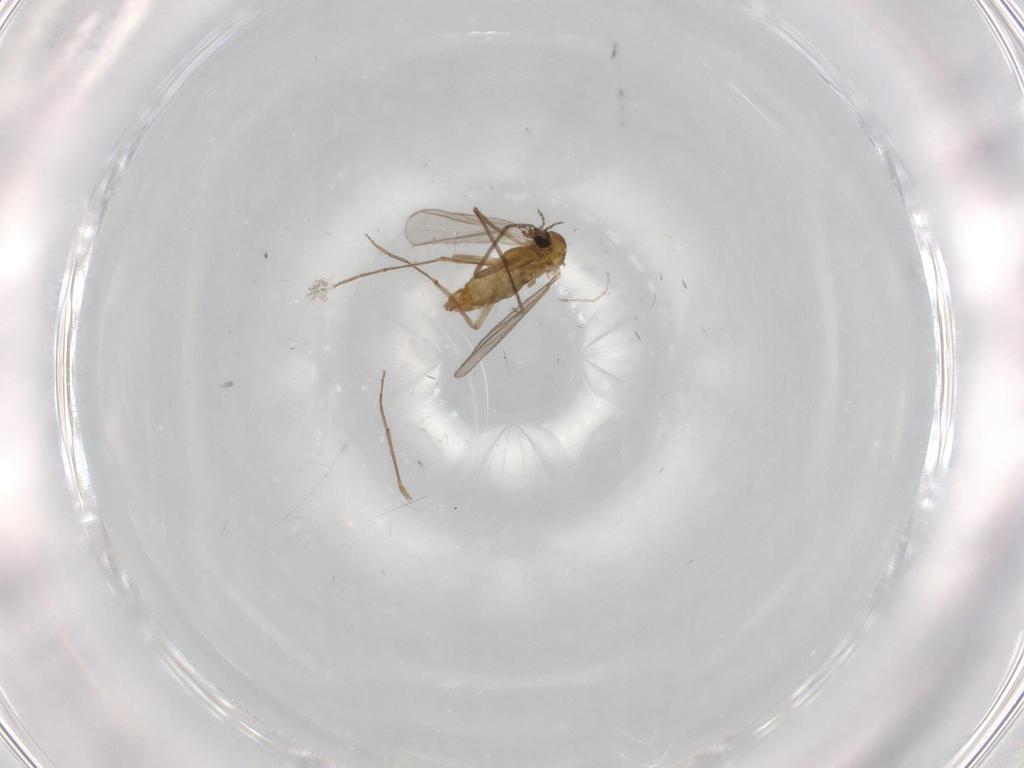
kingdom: Animalia
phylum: Arthropoda
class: Insecta
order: Diptera
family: Chironomidae
